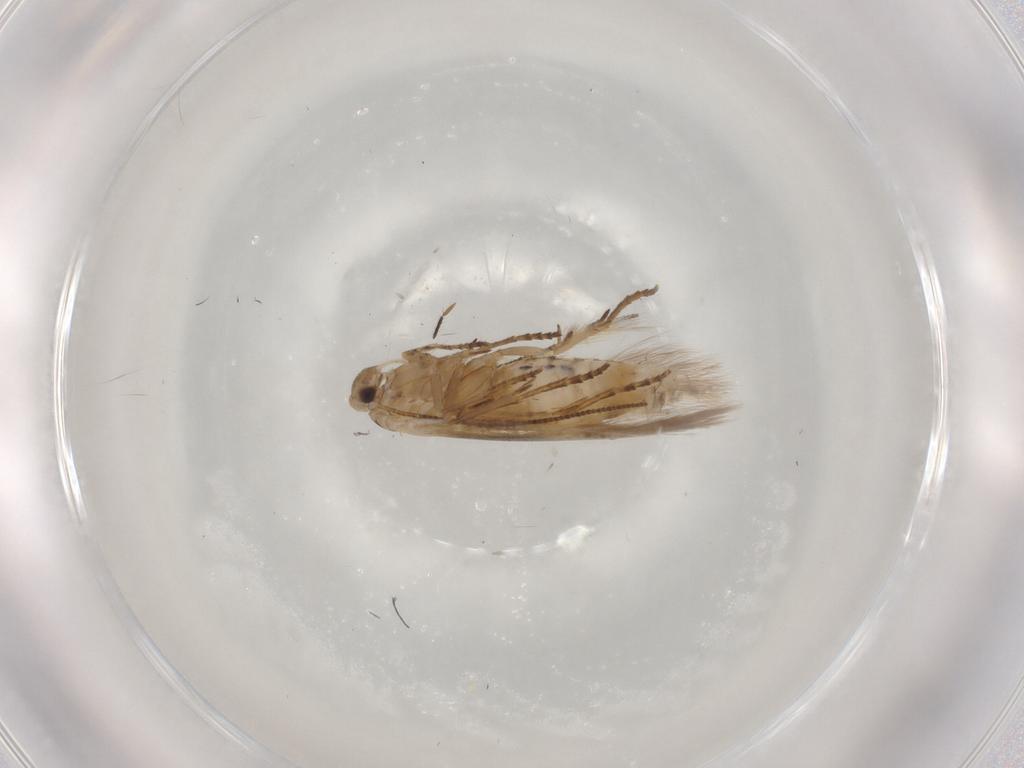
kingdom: Animalia
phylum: Arthropoda
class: Insecta
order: Lepidoptera
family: Bucculatricidae
